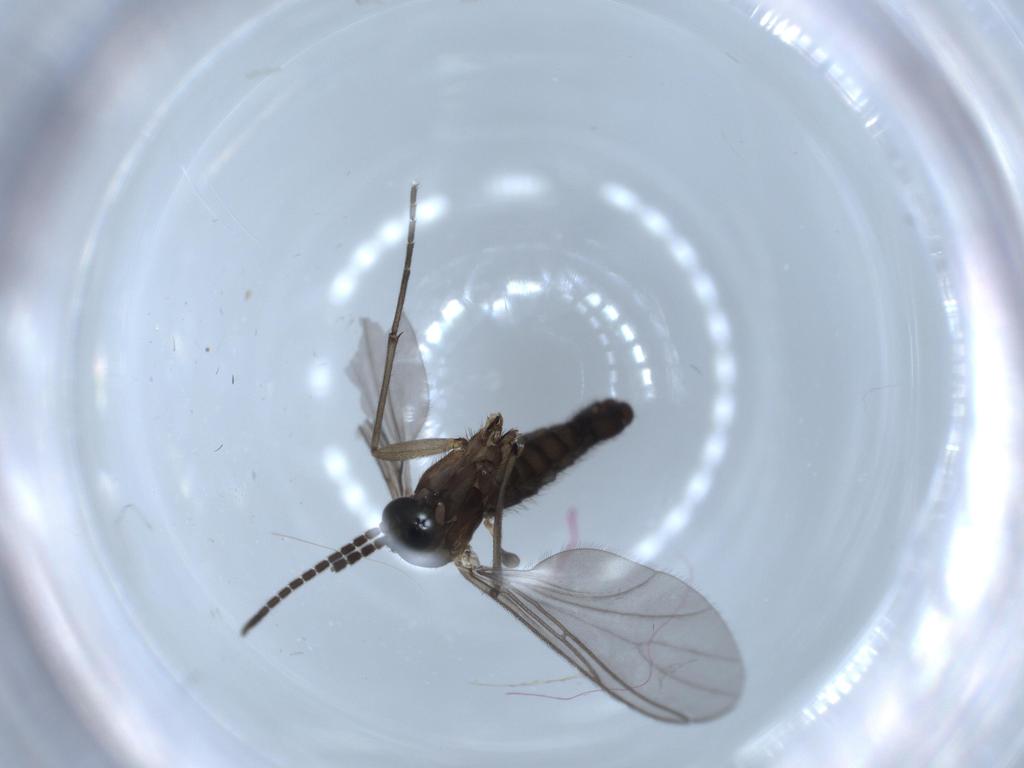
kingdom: Animalia
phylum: Arthropoda
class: Insecta
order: Diptera
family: Sciaridae
